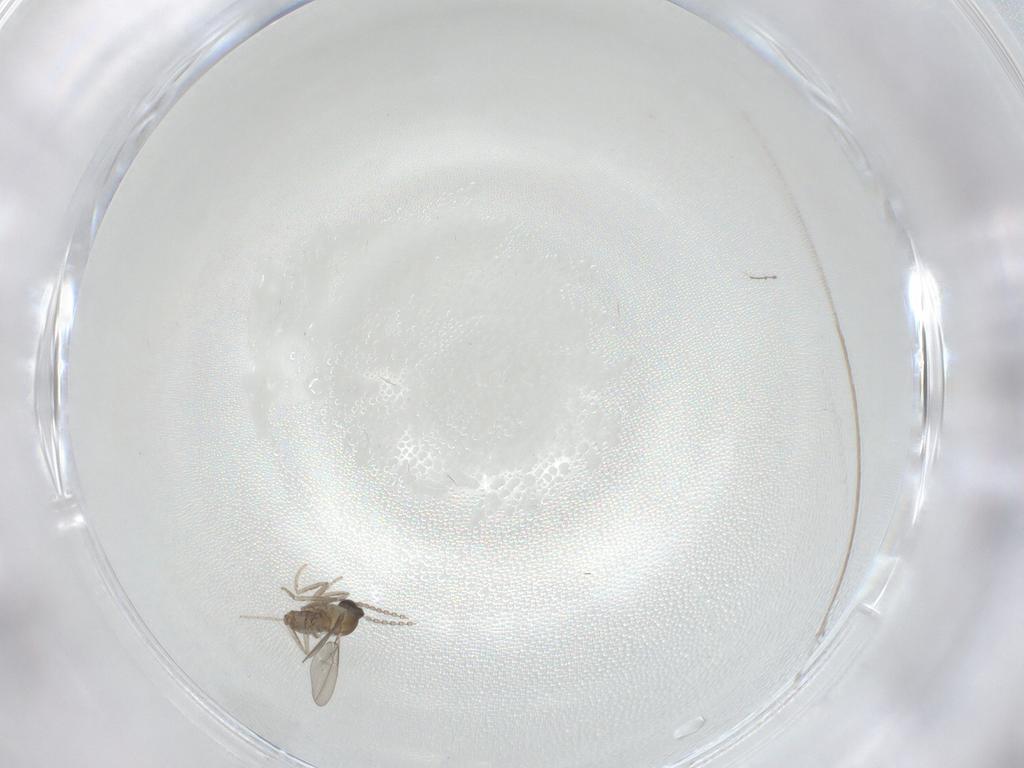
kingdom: Animalia
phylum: Arthropoda
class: Insecta
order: Diptera
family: Cecidomyiidae
